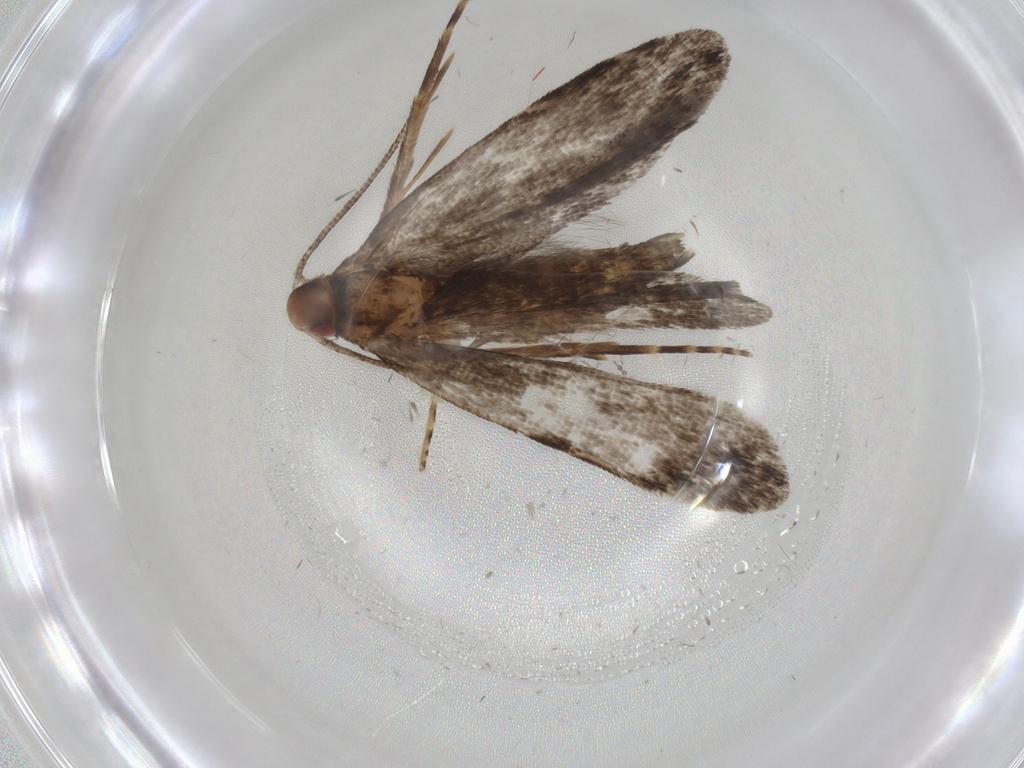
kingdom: Animalia
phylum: Arthropoda
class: Insecta
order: Lepidoptera
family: Gelechiidae
